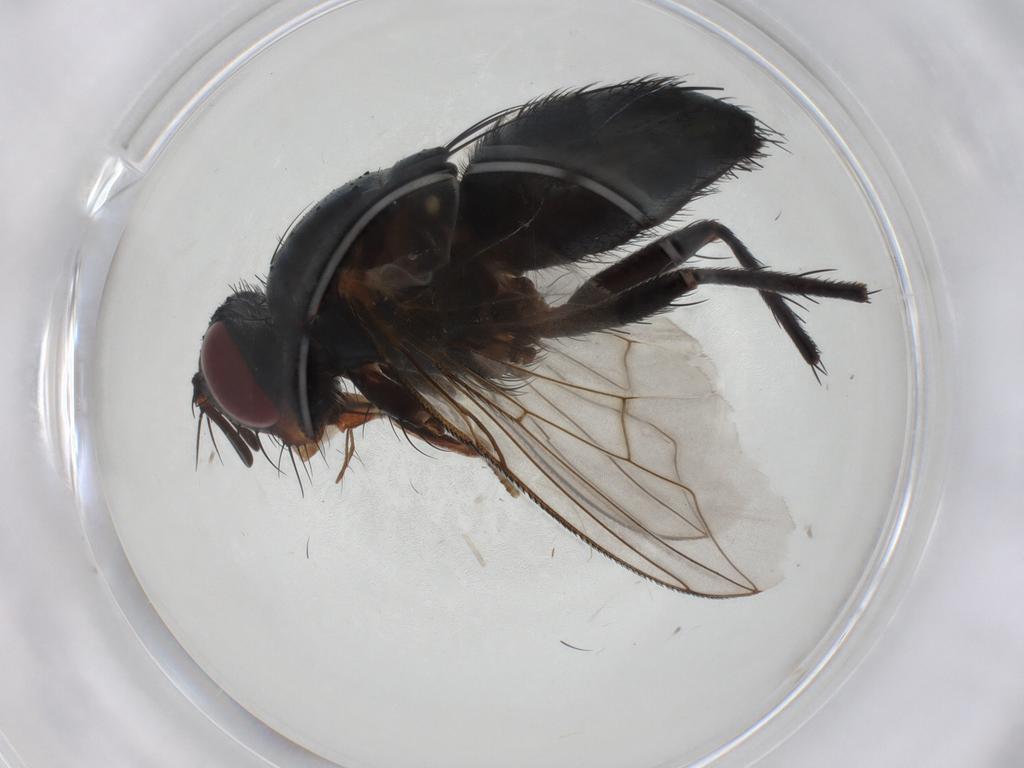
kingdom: Animalia
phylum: Arthropoda
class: Insecta
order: Diptera
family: Tachinidae
